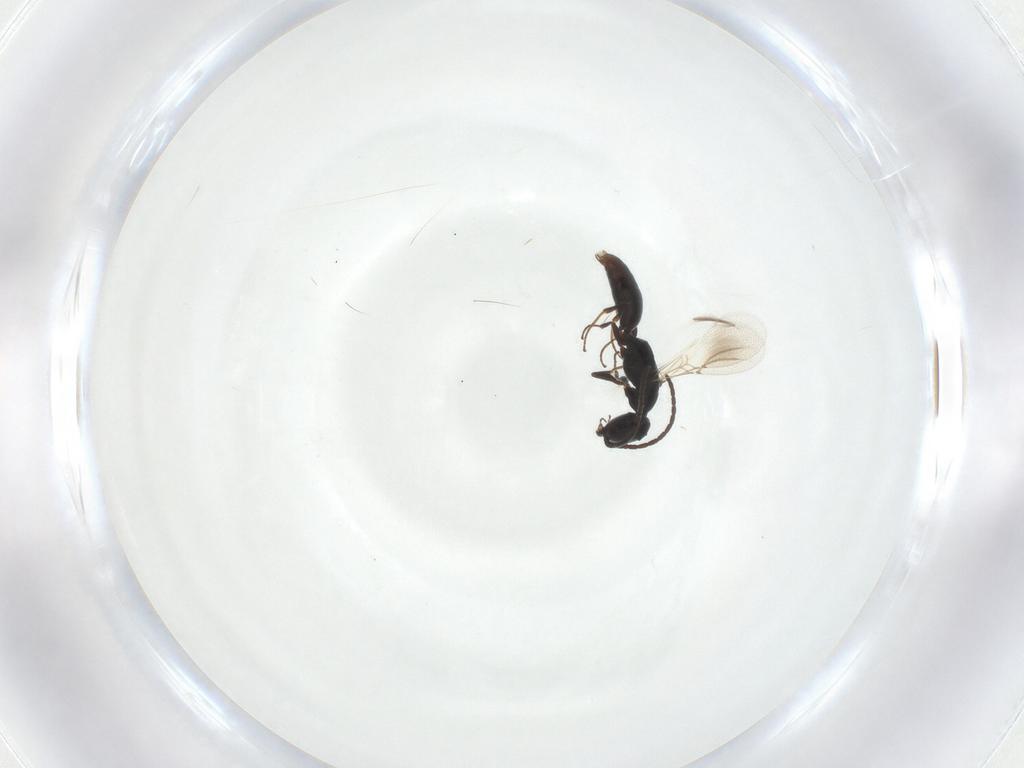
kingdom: Animalia
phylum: Arthropoda
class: Insecta
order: Hymenoptera
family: Bethylidae
